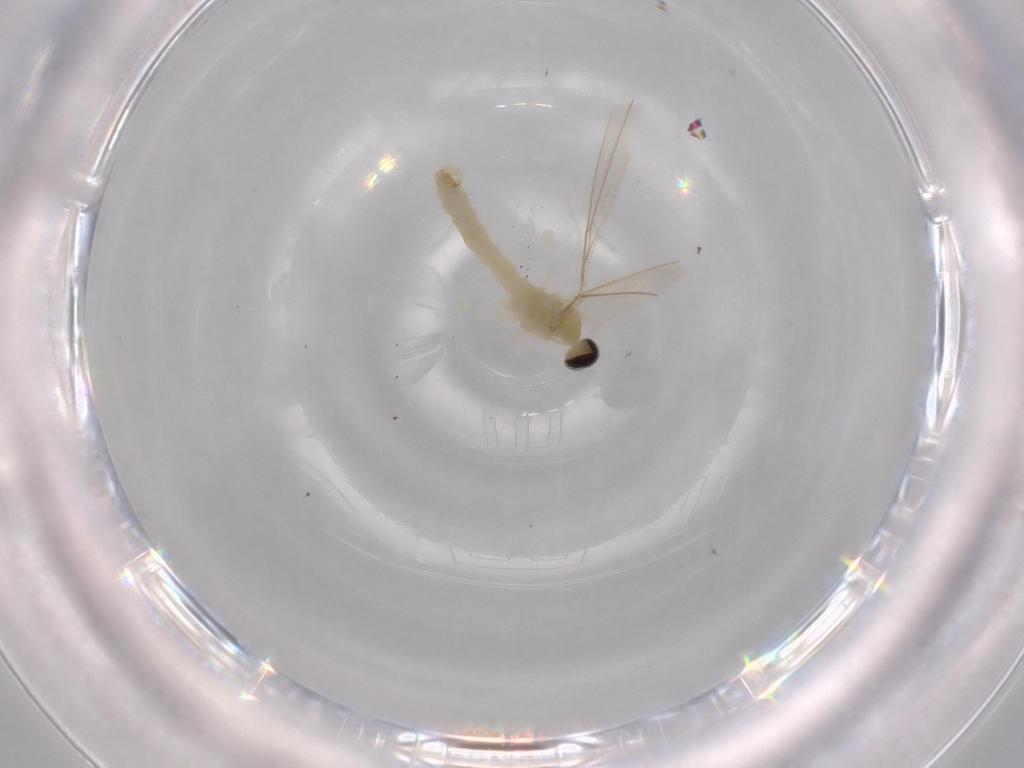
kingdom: Animalia
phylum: Arthropoda
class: Insecta
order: Diptera
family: Cecidomyiidae
